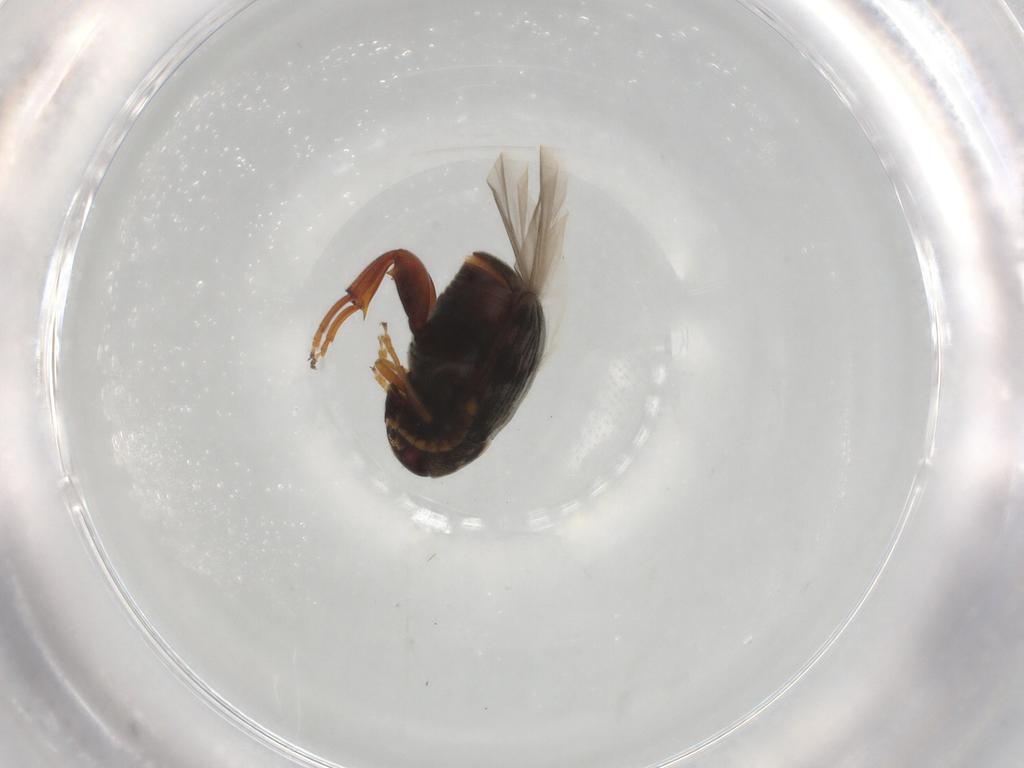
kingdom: Animalia
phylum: Arthropoda
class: Insecta
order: Coleoptera
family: Chrysomelidae
